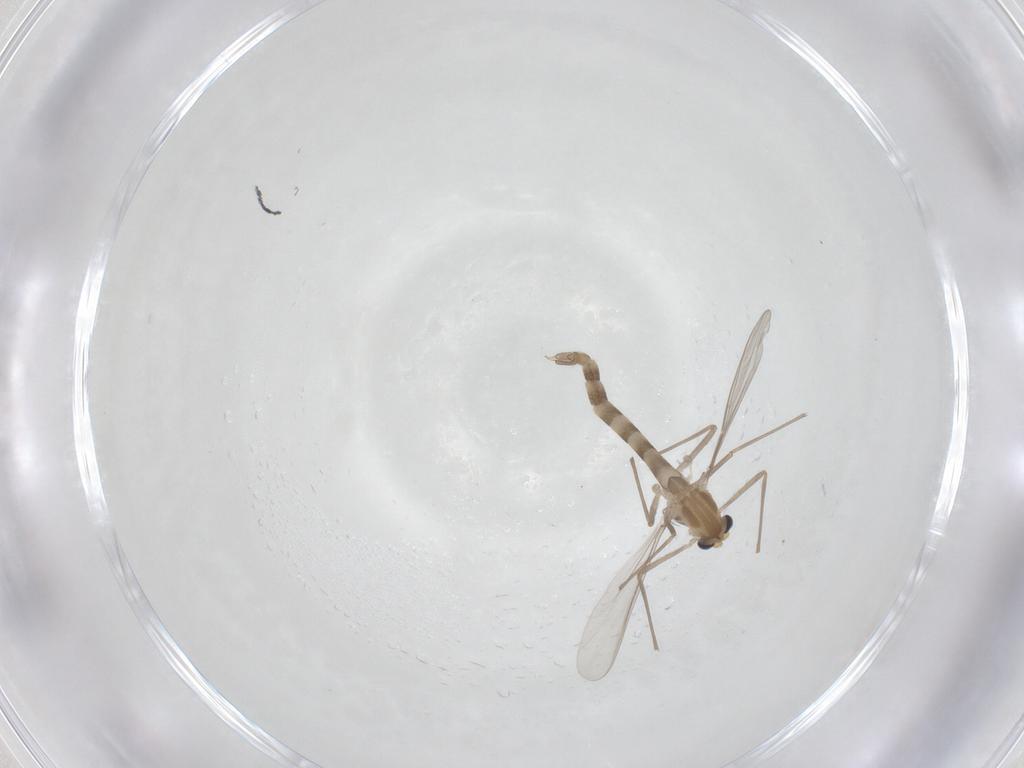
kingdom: Animalia
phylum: Arthropoda
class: Insecta
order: Diptera
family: Chironomidae
